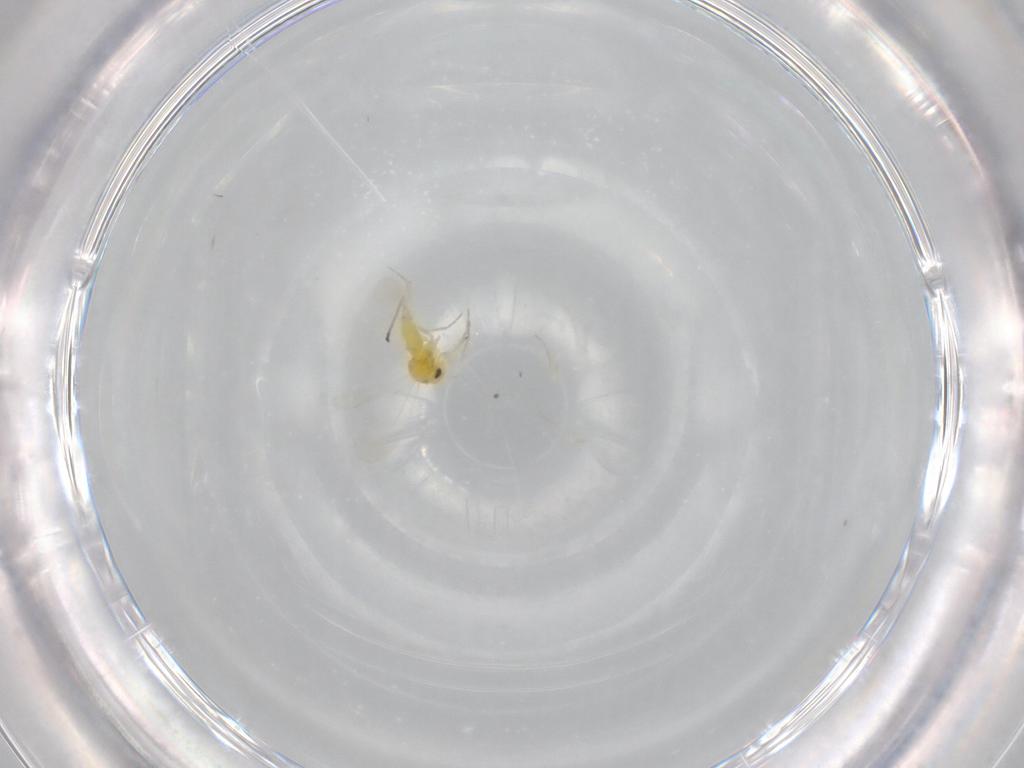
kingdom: Animalia
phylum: Arthropoda
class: Insecta
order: Hemiptera
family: Aleyrodidae
